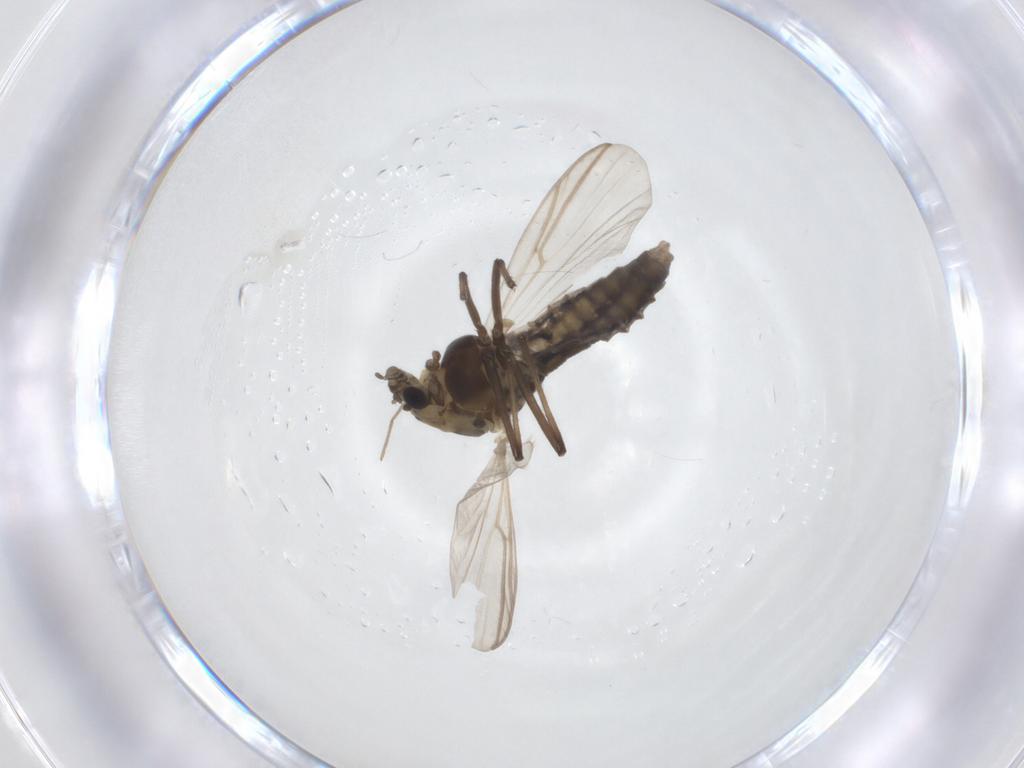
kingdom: Animalia
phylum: Arthropoda
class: Insecta
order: Diptera
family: Chironomidae
